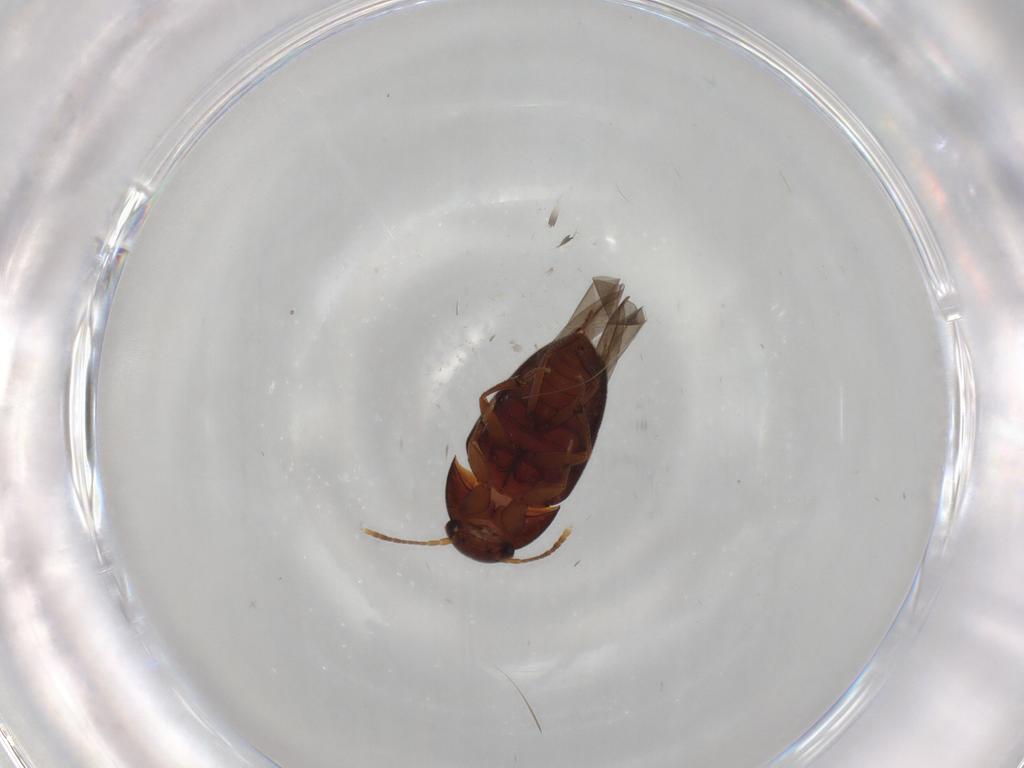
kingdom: Animalia
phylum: Arthropoda
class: Insecta
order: Coleoptera
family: Leiodidae
